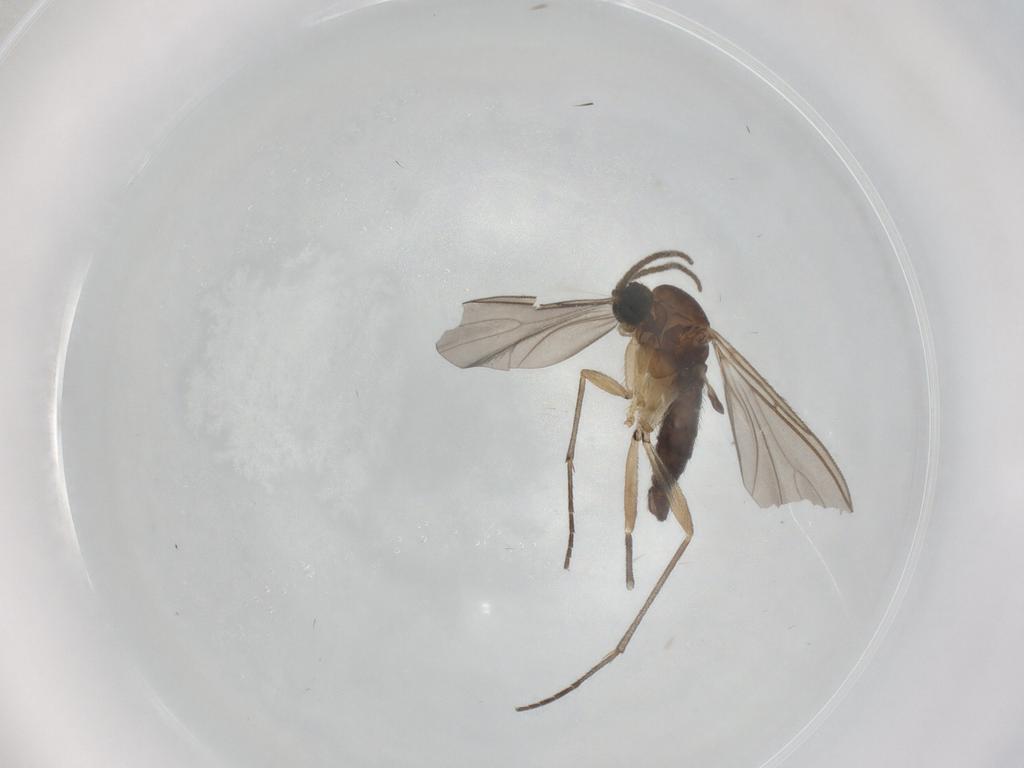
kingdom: Animalia
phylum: Arthropoda
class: Insecta
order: Diptera
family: Sciaridae
